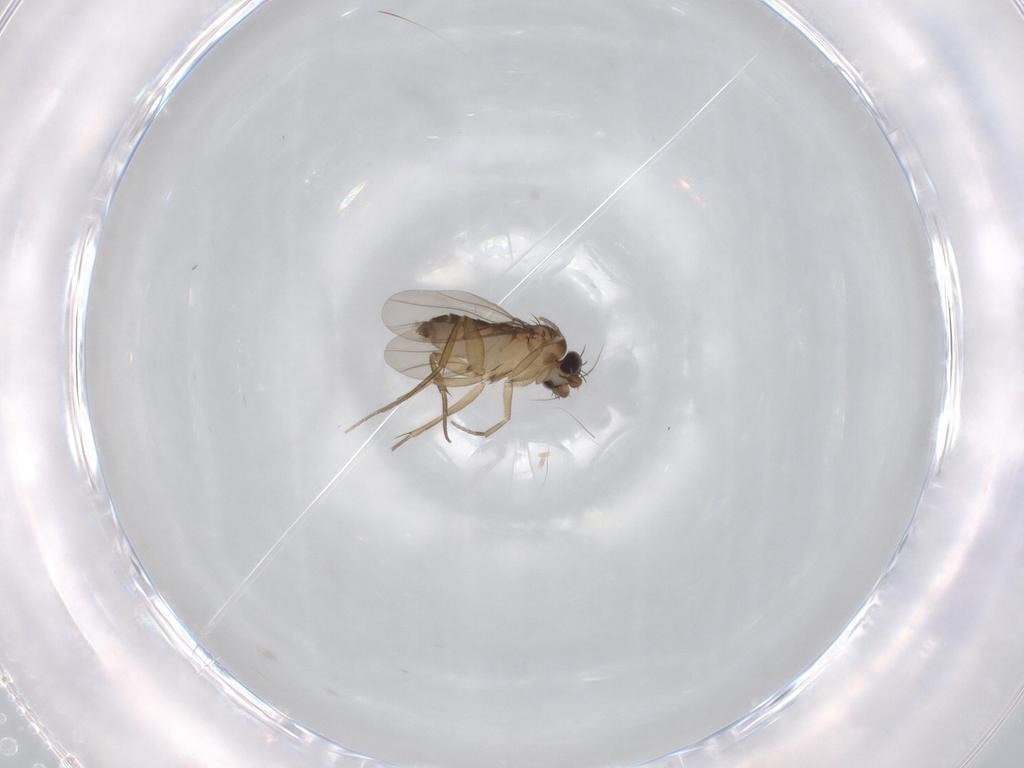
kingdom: Animalia
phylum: Arthropoda
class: Insecta
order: Diptera
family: Phoridae
